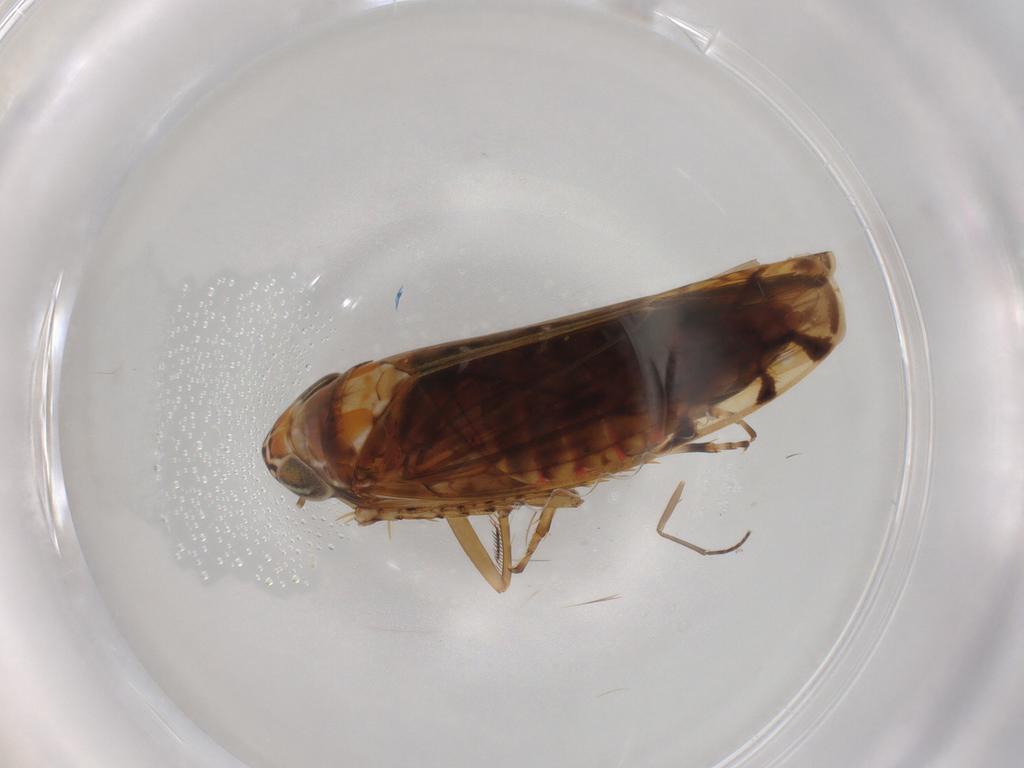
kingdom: Animalia
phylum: Arthropoda
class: Insecta
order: Hemiptera
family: Cicadellidae
